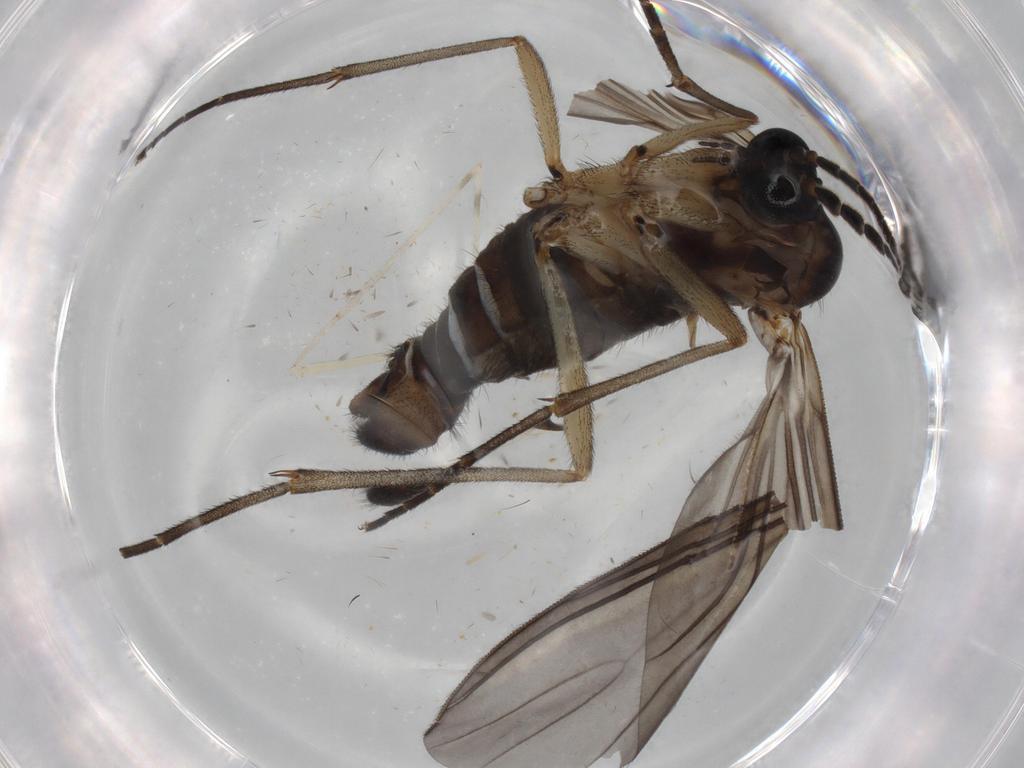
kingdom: Animalia
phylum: Arthropoda
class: Insecta
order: Diptera
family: Sciaridae
